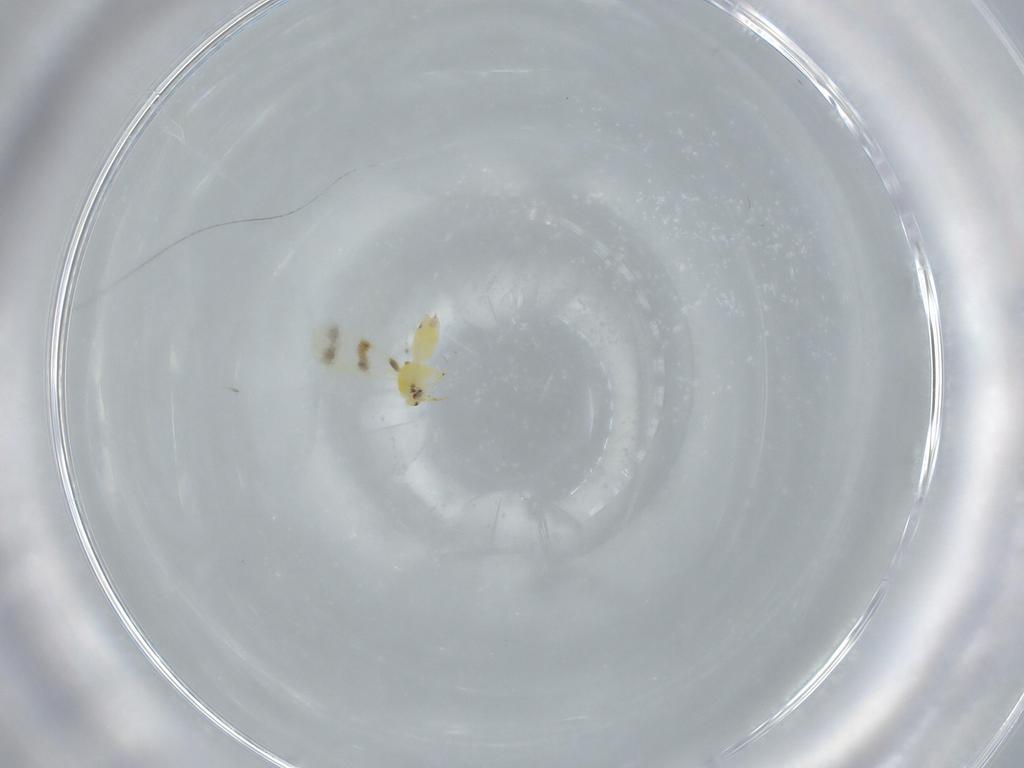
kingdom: Animalia
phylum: Arthropoda
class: Insecta
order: Hemiptera
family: Aleyrodidae
